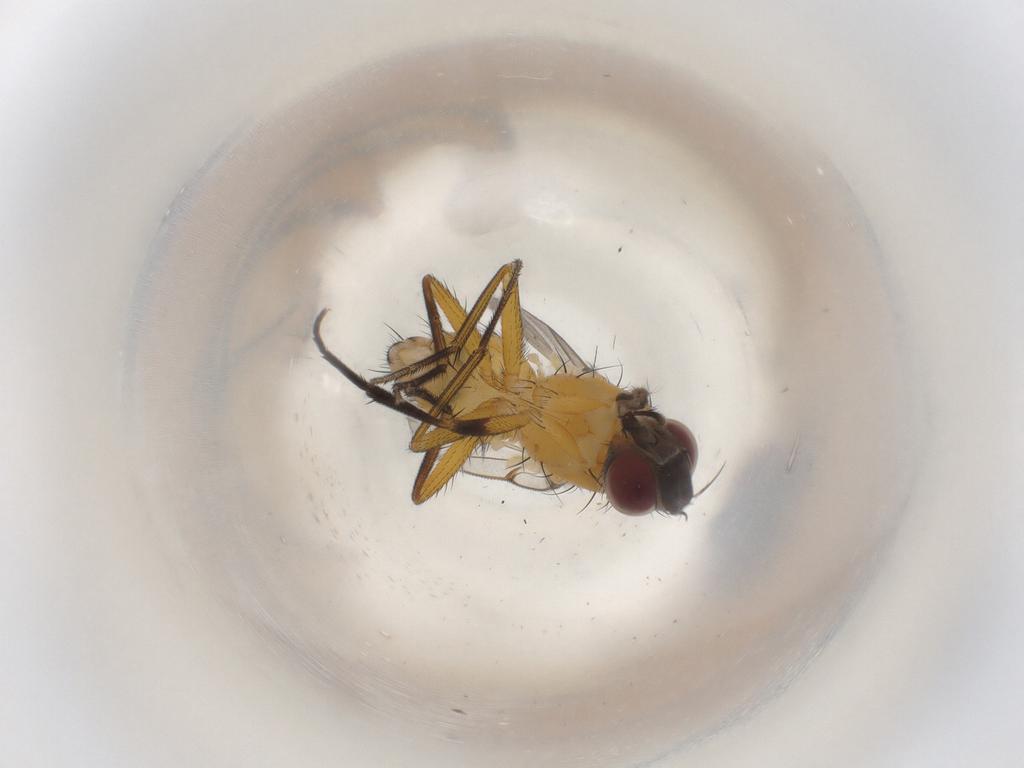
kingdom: Animalia
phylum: Arthropoda
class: Insecta
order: Diptera
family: Muscidae
